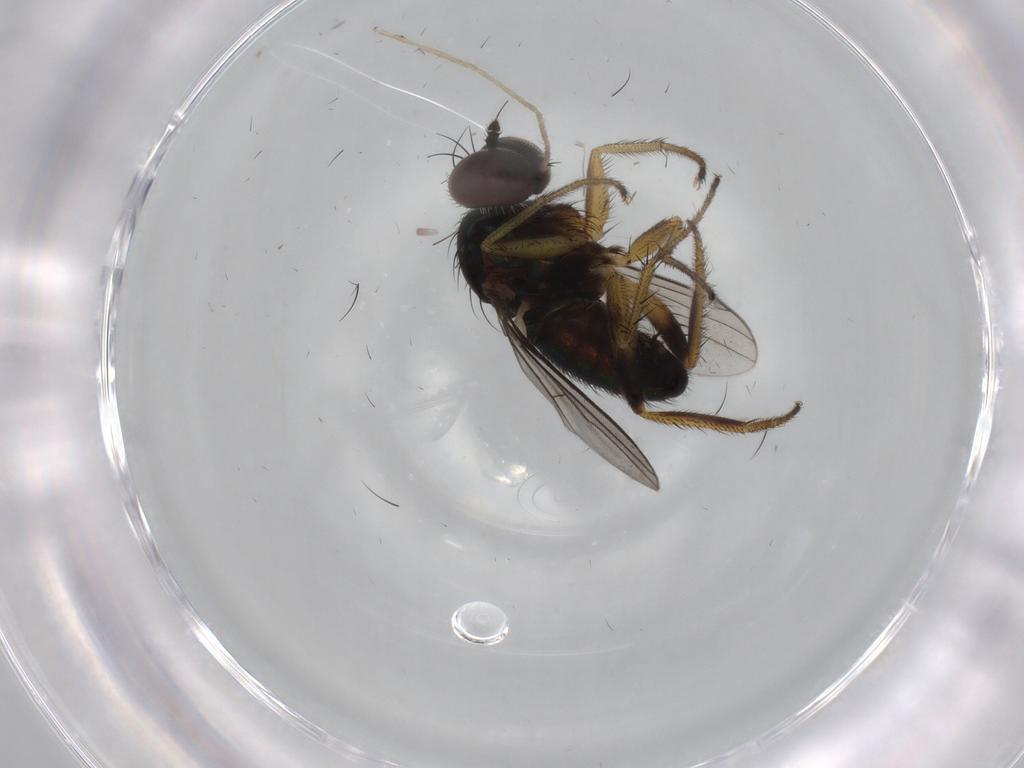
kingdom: Animalia
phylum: Arthropoda
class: Insecta
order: Diptera
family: Dolichopodidae
